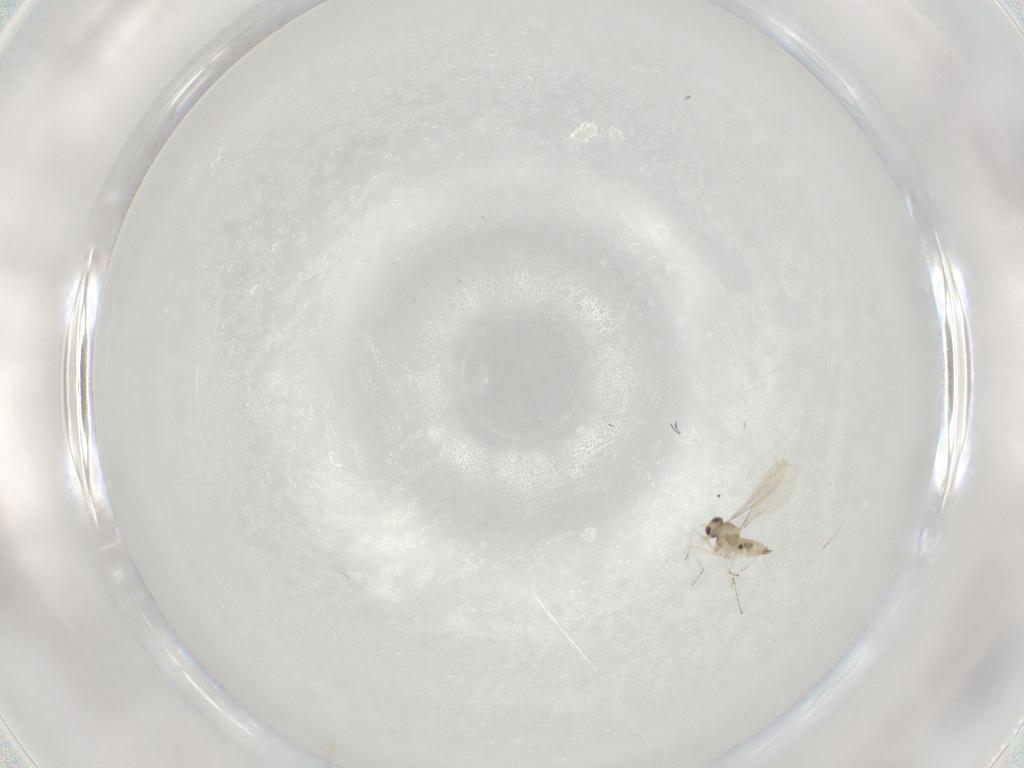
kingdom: Animalia
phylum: Arthropoda
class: Insecta
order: Diptera
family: Cecidomyiidae
